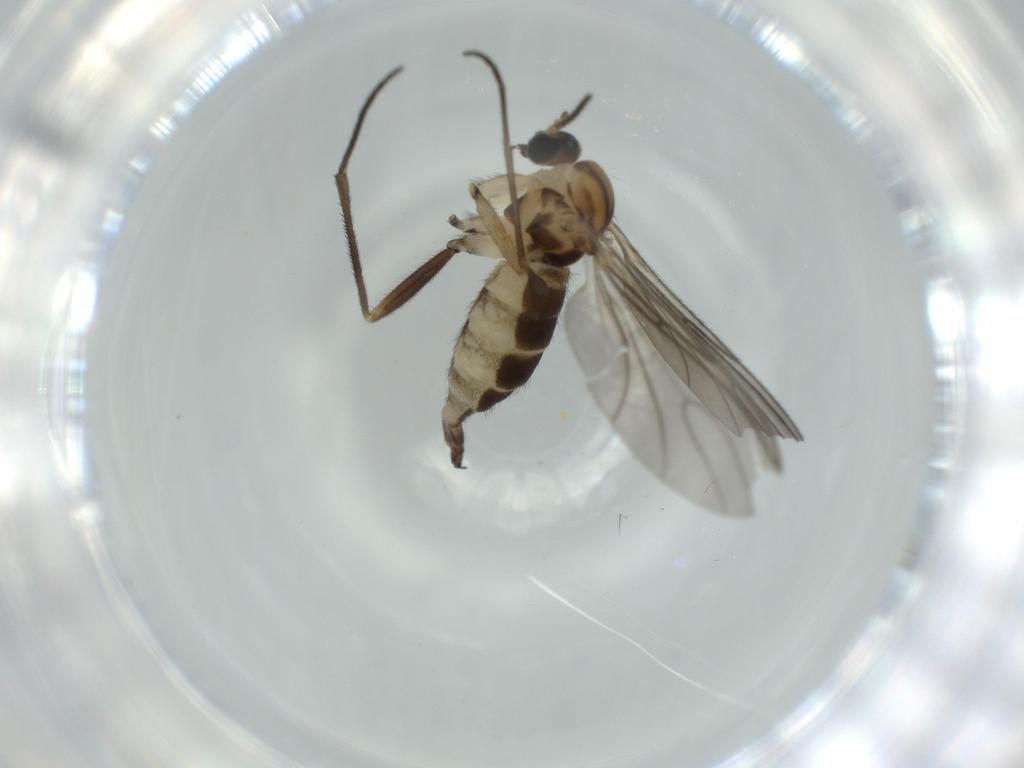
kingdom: Animalia
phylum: Arthropoda
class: Insecta
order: Diptera
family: Sciaridae
